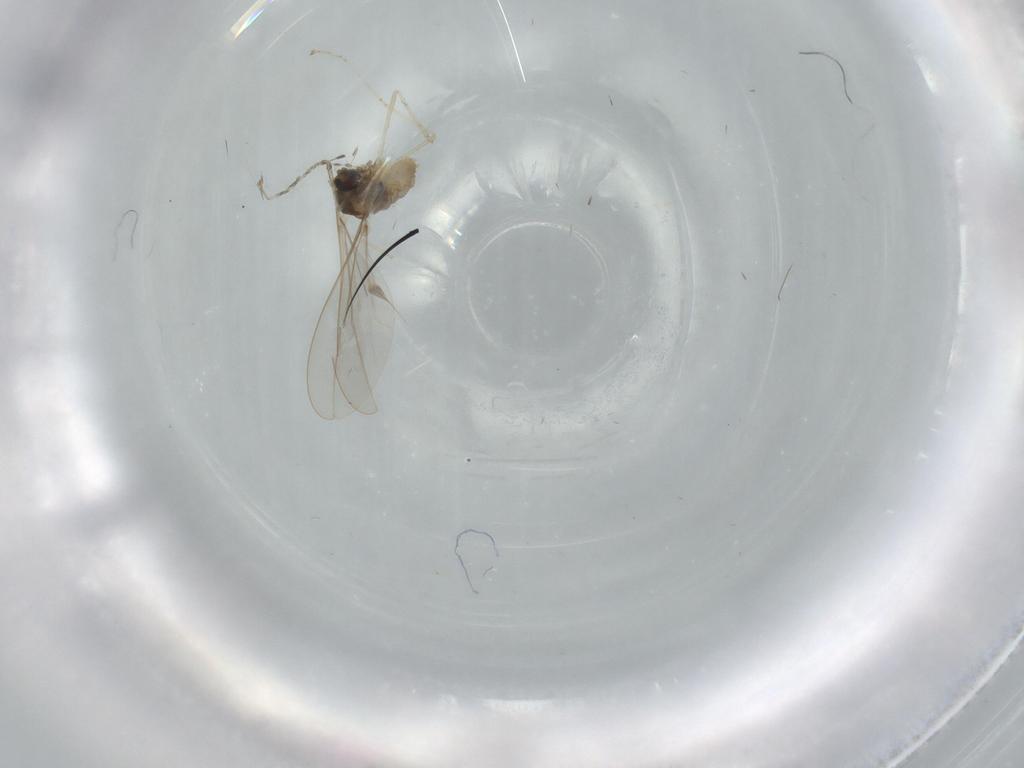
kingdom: Animalia
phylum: Arthropoda
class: Insecta
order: Diptera
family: Cecidomyiidae
